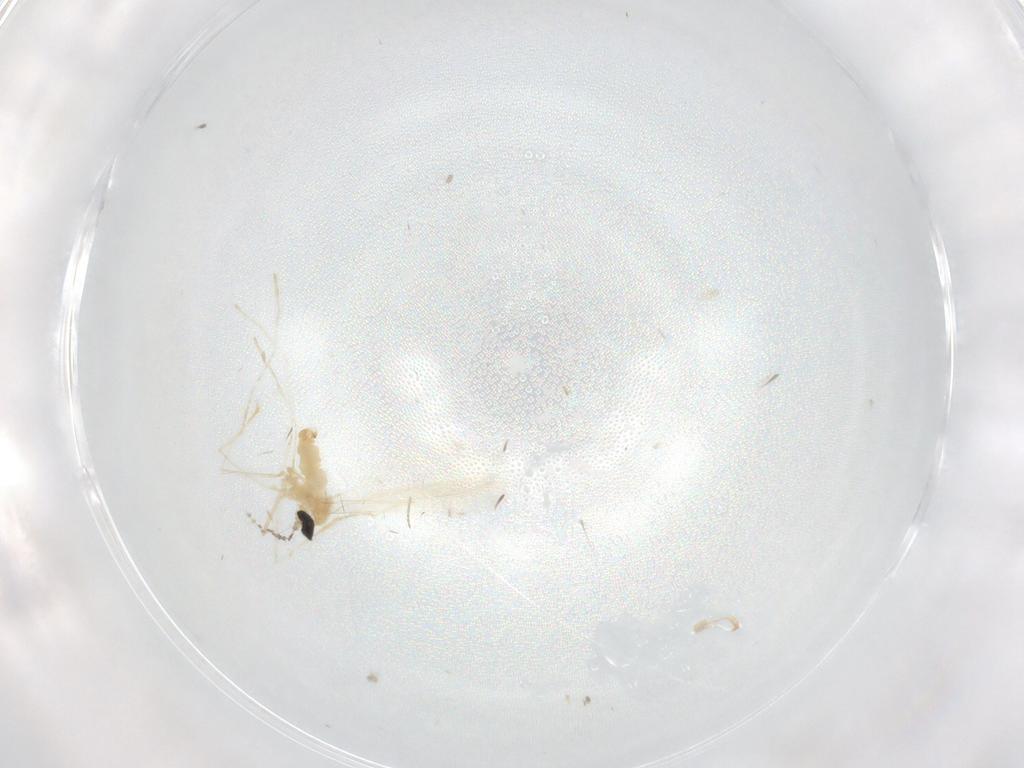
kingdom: Animalia
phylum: Arthropoda
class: Insecta
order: Diptera
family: Cecidomyiidae
